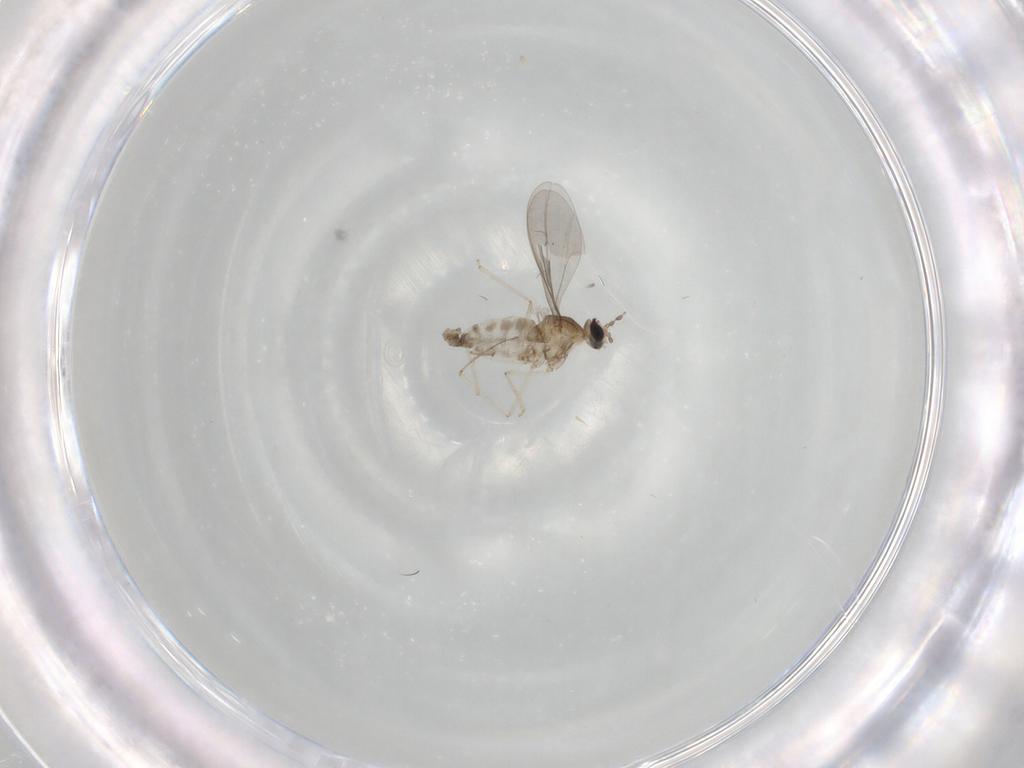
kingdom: Animalia
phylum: Arthropoda
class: Insecta
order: Diptera
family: Cecidomyiidae
